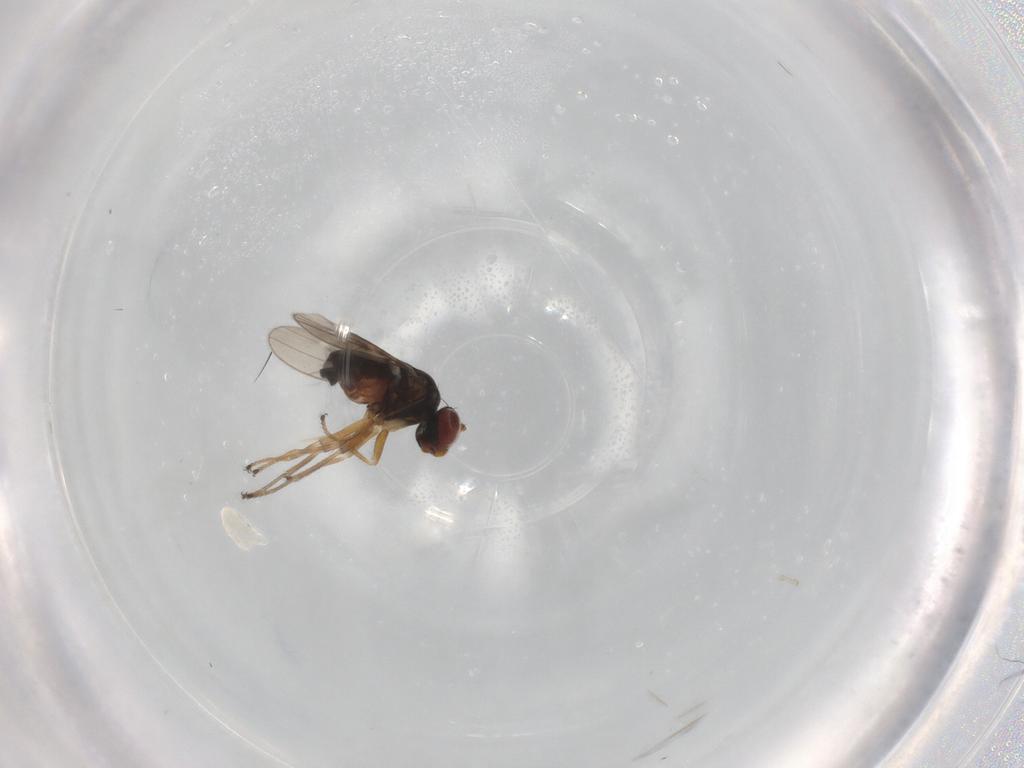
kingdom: Animalia
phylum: Arthropoda
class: Insecta
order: Diptera
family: Ephydridae
